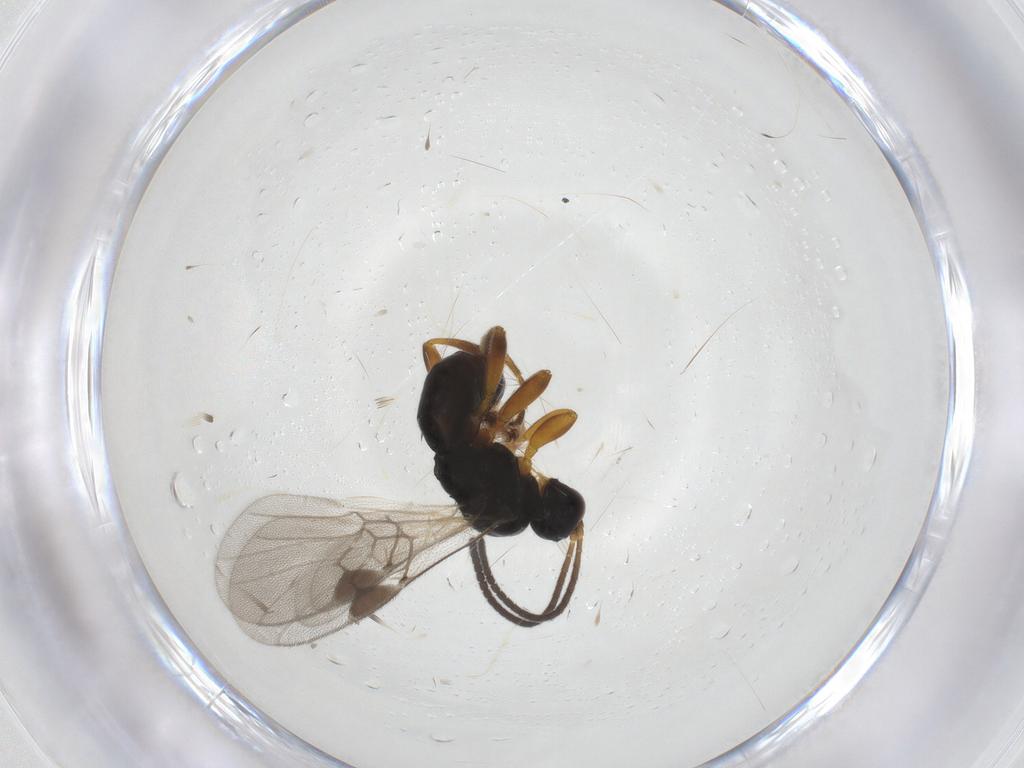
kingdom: Animalia
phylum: Arthropoda
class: Insecta
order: Hymenoptera
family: Braconidae
